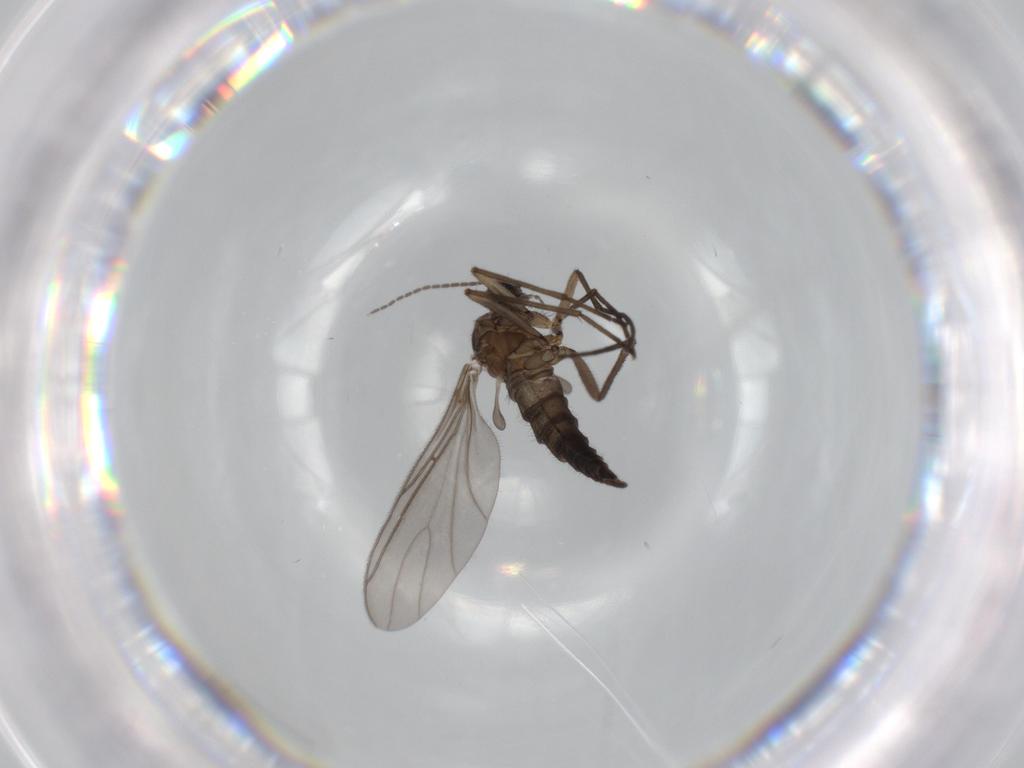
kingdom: Animalia
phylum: Arthropoda
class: Insecta
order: Diptera
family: Sciaridae
